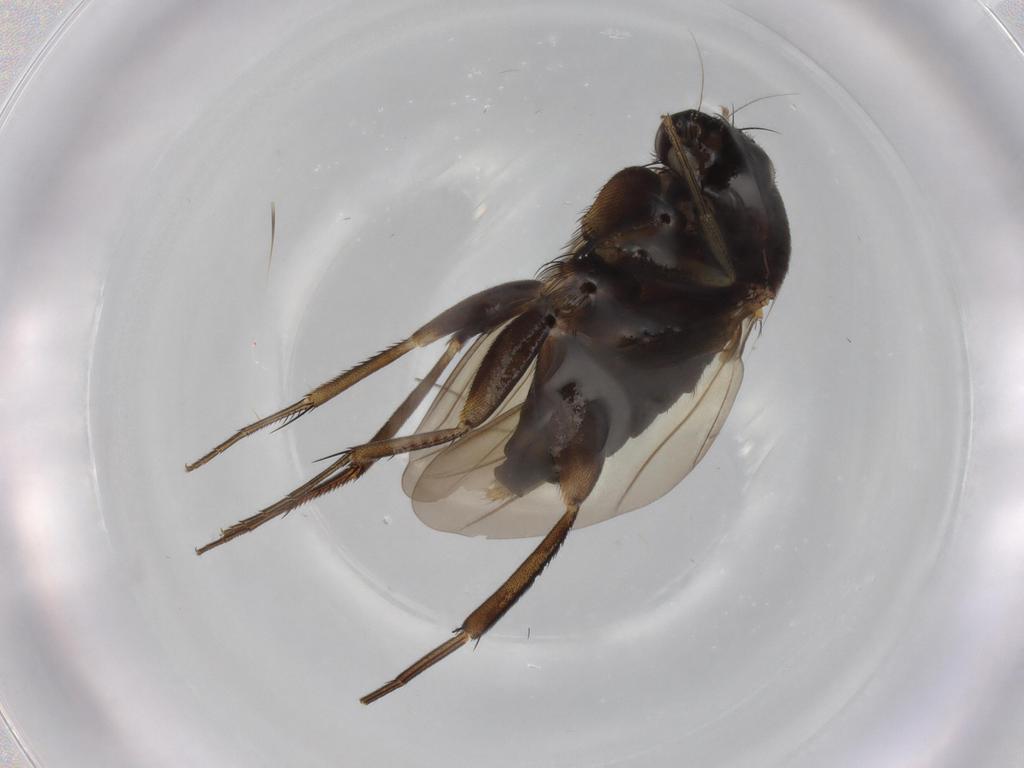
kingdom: Animalia
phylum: Arthropoda
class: Insecta
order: Diptera
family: Phoridae
